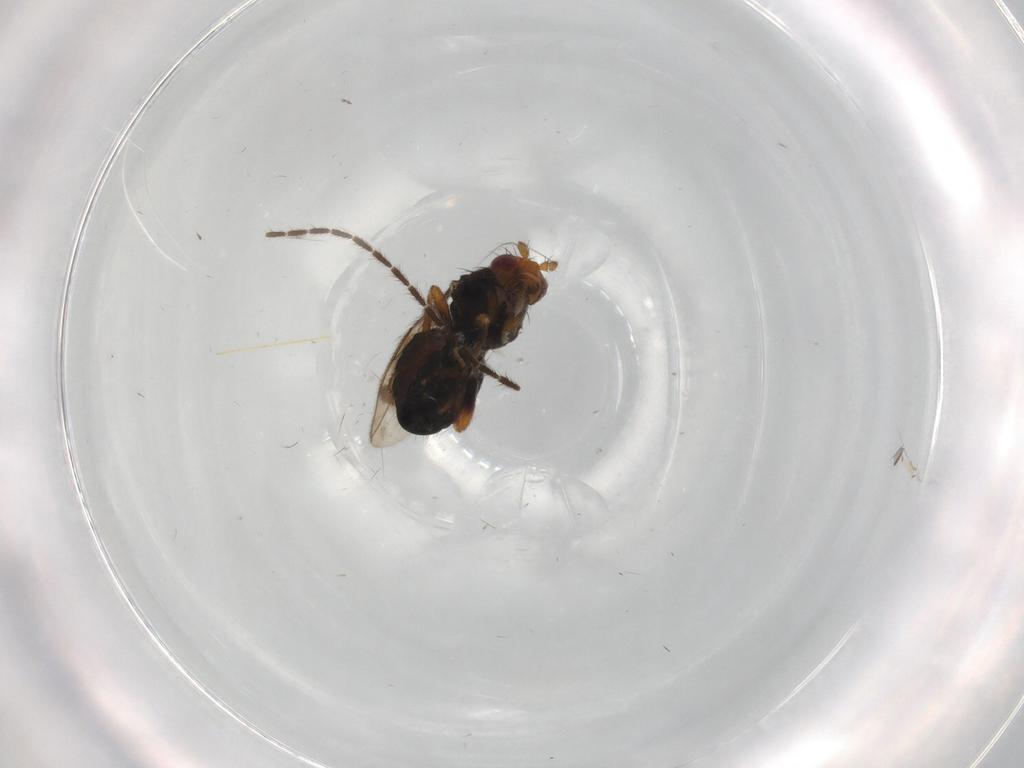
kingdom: Animalia
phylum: Arthropoda
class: Insecta
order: Diptera
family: Sphaeroceridae
